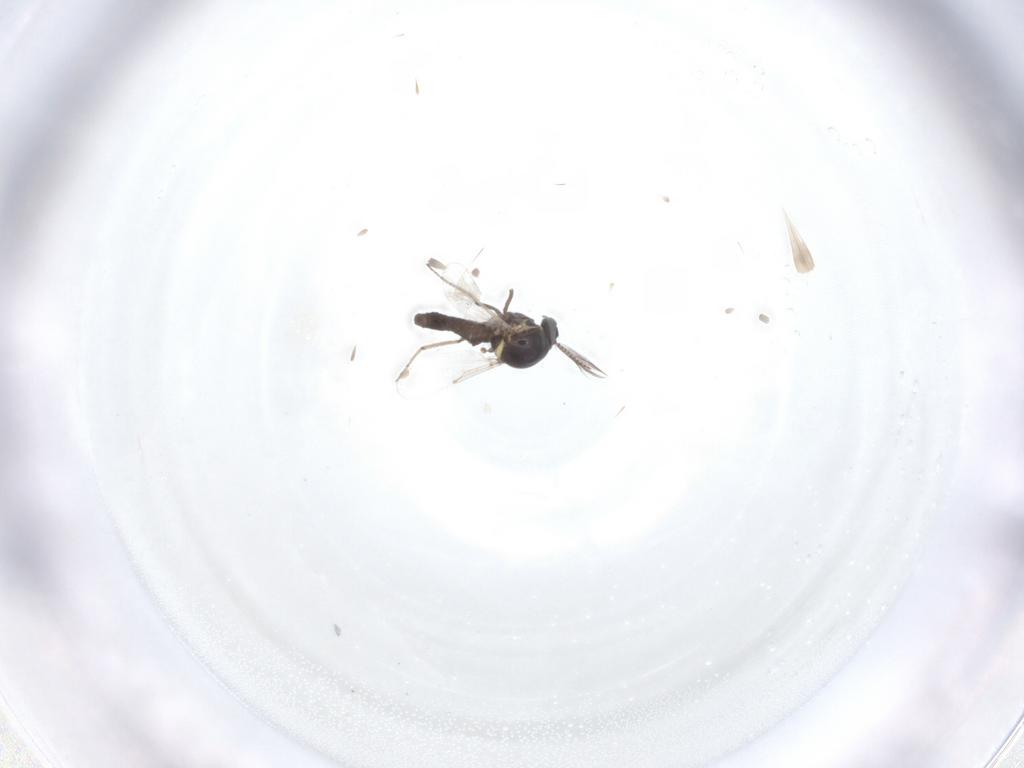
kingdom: Animalia
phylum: Arthropoda
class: Insecta
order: Diptera
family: Ceratopogonidae
